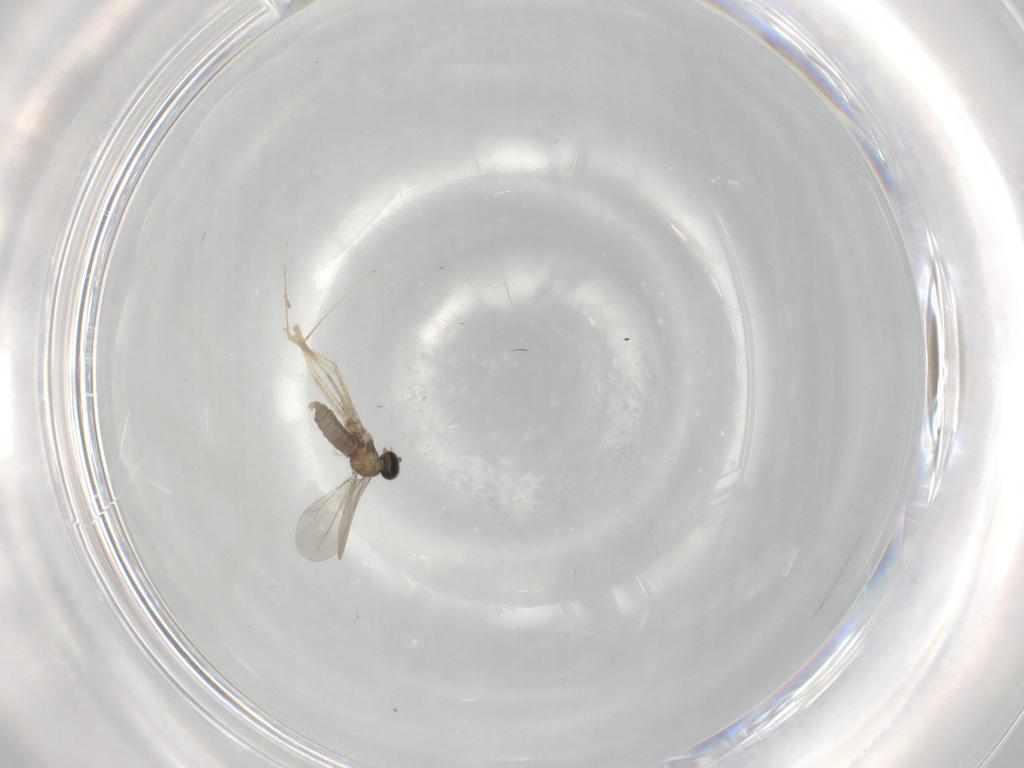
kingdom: Animalia
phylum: Arthropoda
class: Insecta
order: Diptera
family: Cecidomyiidae
